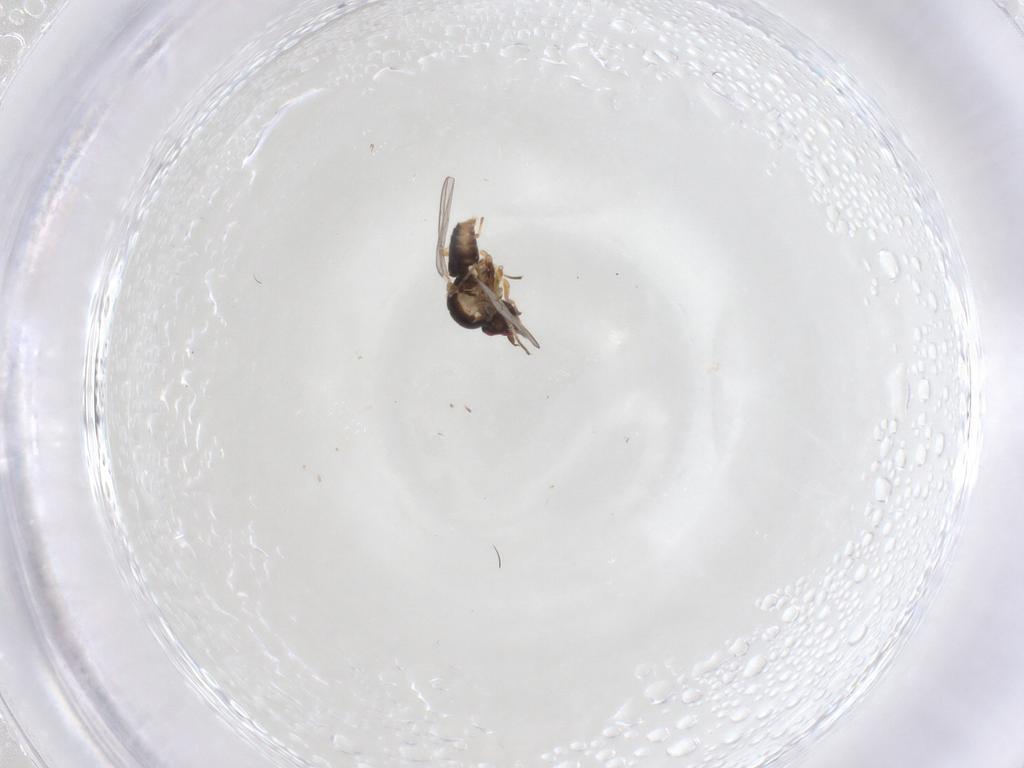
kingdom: Animalia
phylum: Arthropoda
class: Insecta
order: Diptera
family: Bombyliidae
